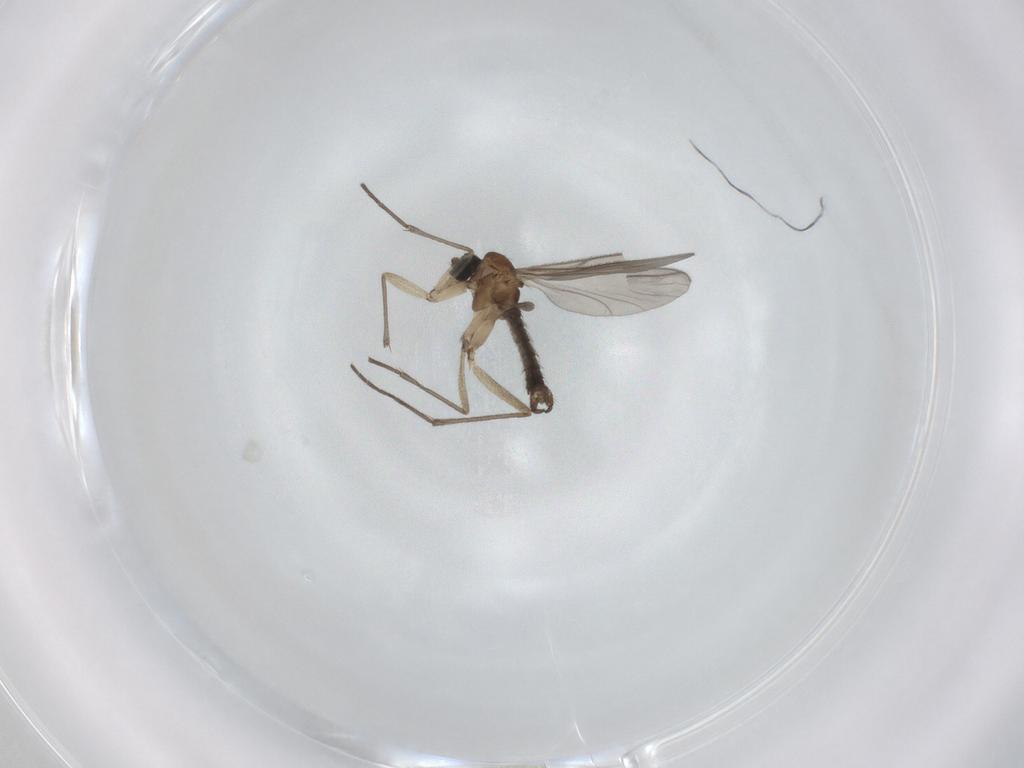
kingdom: Animalia
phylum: Arthropoda
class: Insecta
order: Diptera
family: Sciaridae
